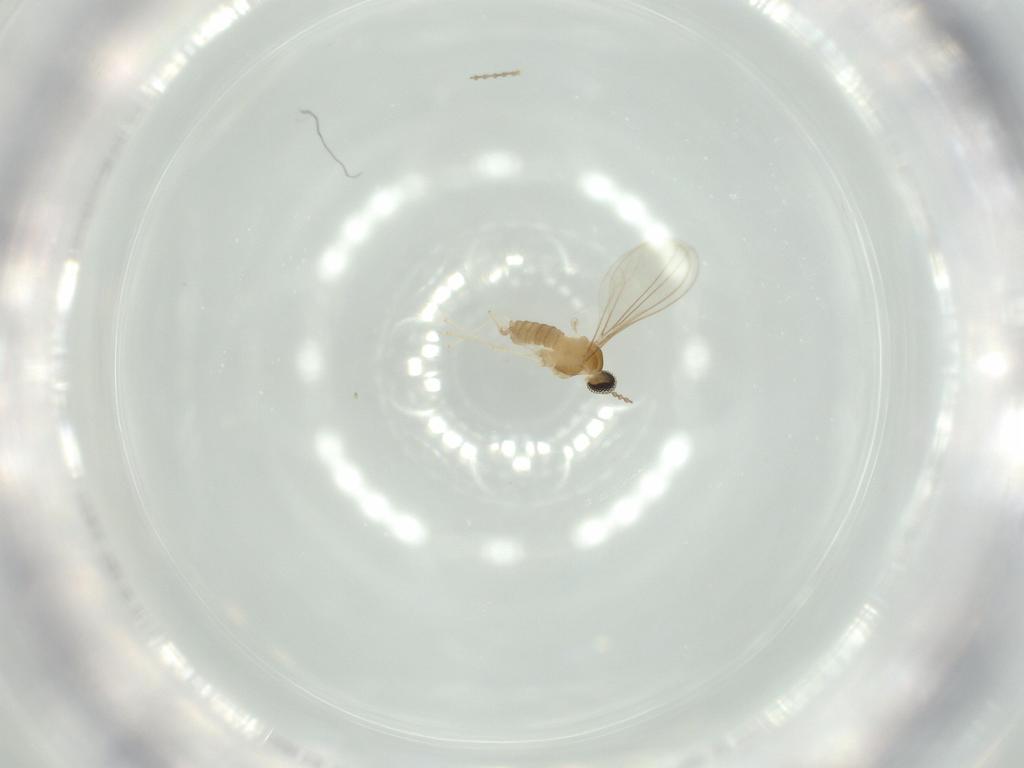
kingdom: Animalia
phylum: Arthropoda
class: Insecta
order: Diptera
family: Cecidomyiidae
